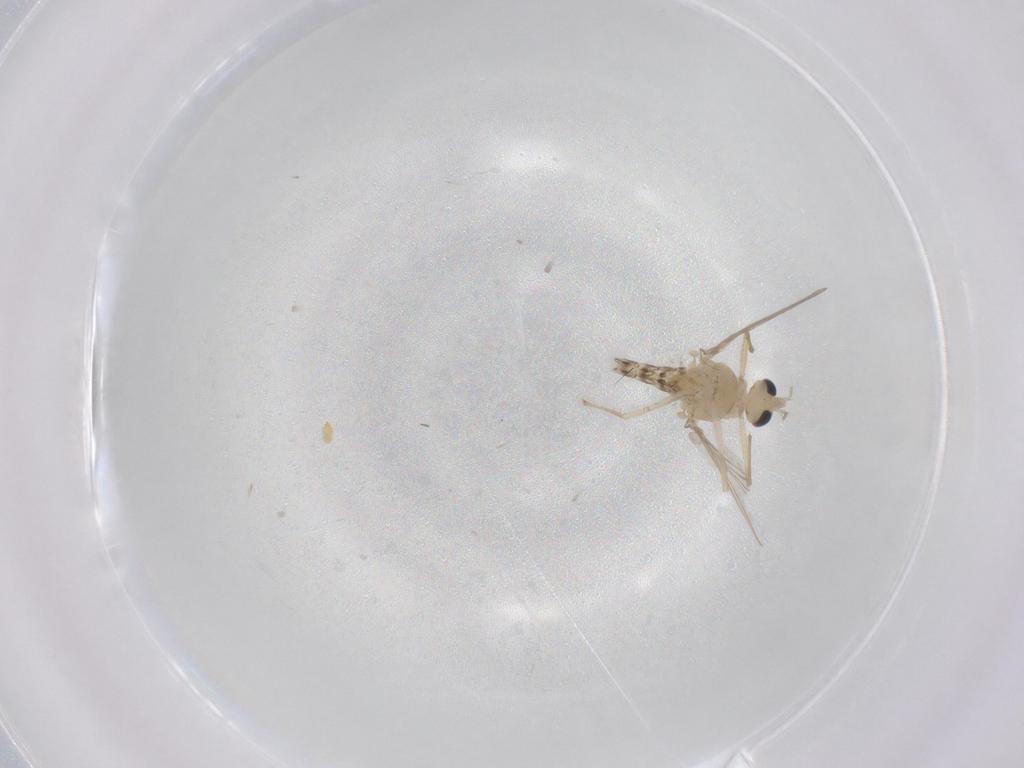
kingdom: Animalia
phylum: Arthropoda
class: Insecta
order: Diptera
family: Chironomidae
